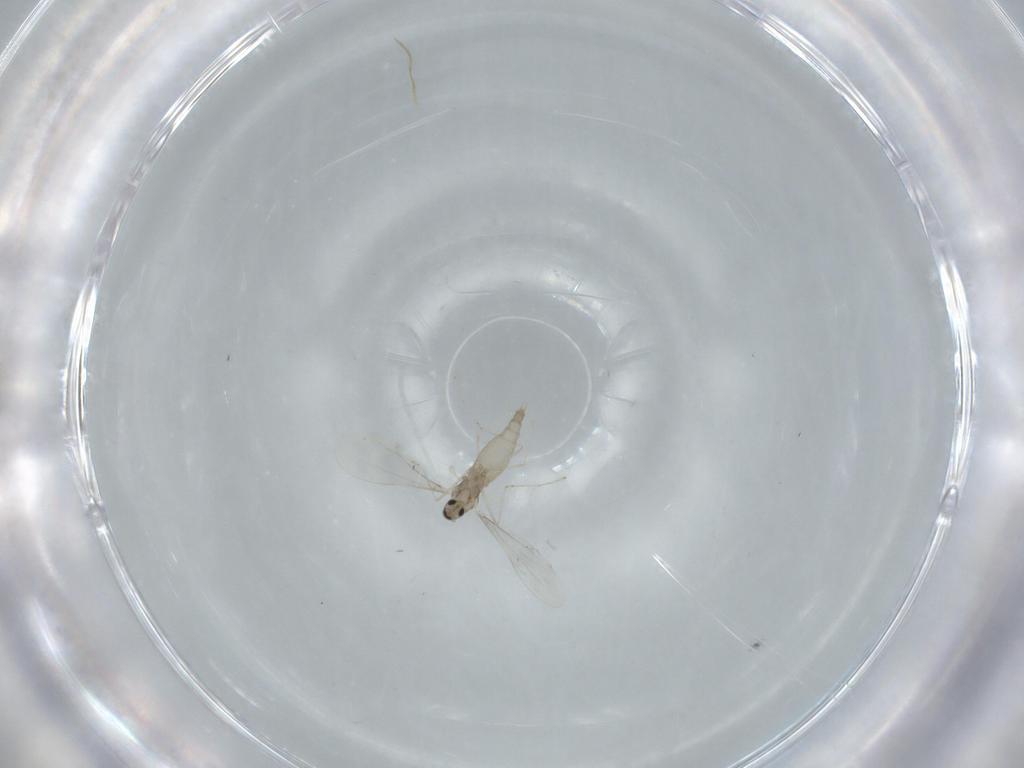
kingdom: Animalia
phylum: Arthropoda
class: Insecta
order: Diptera
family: Cecidomyiidae
